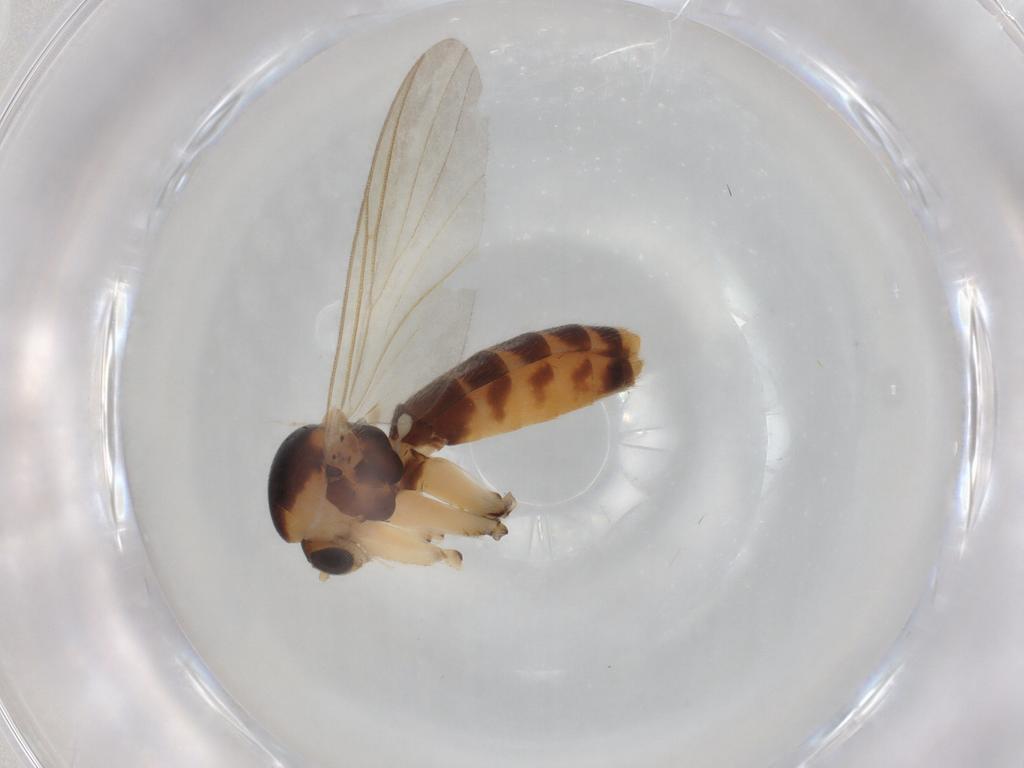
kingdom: Animalia
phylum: Arthropoda
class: Insecta
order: Diptera
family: Mycetophilidae
